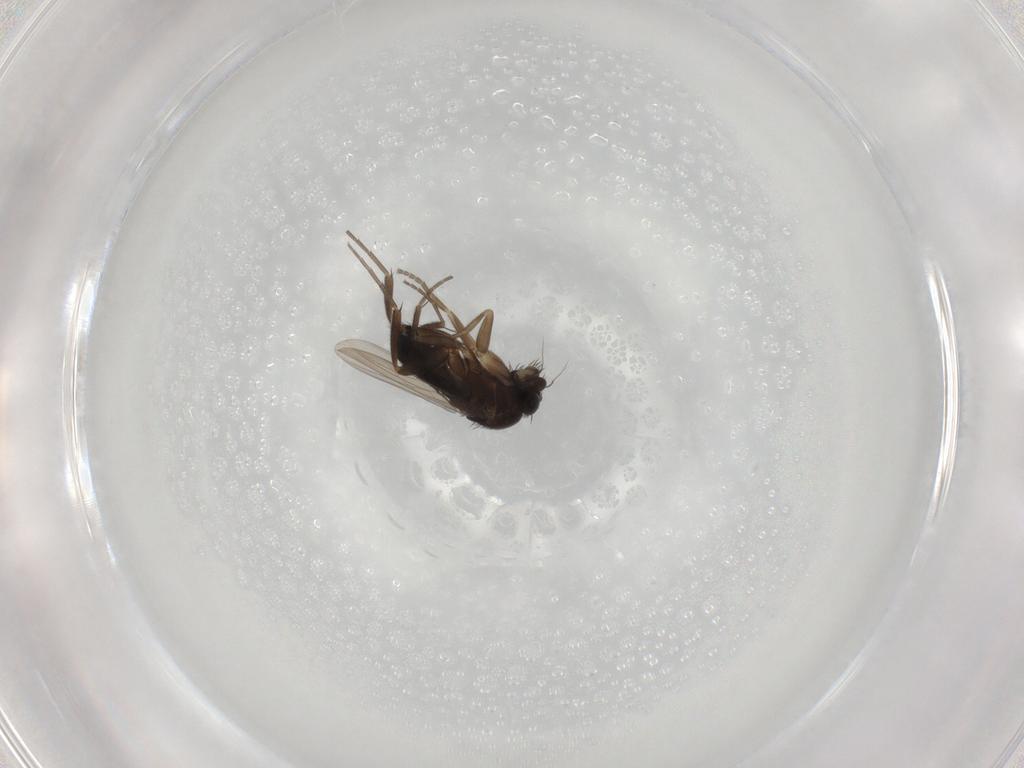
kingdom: Animalia
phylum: Arthropoda
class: Insecta
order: Diptera
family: Phoridae
